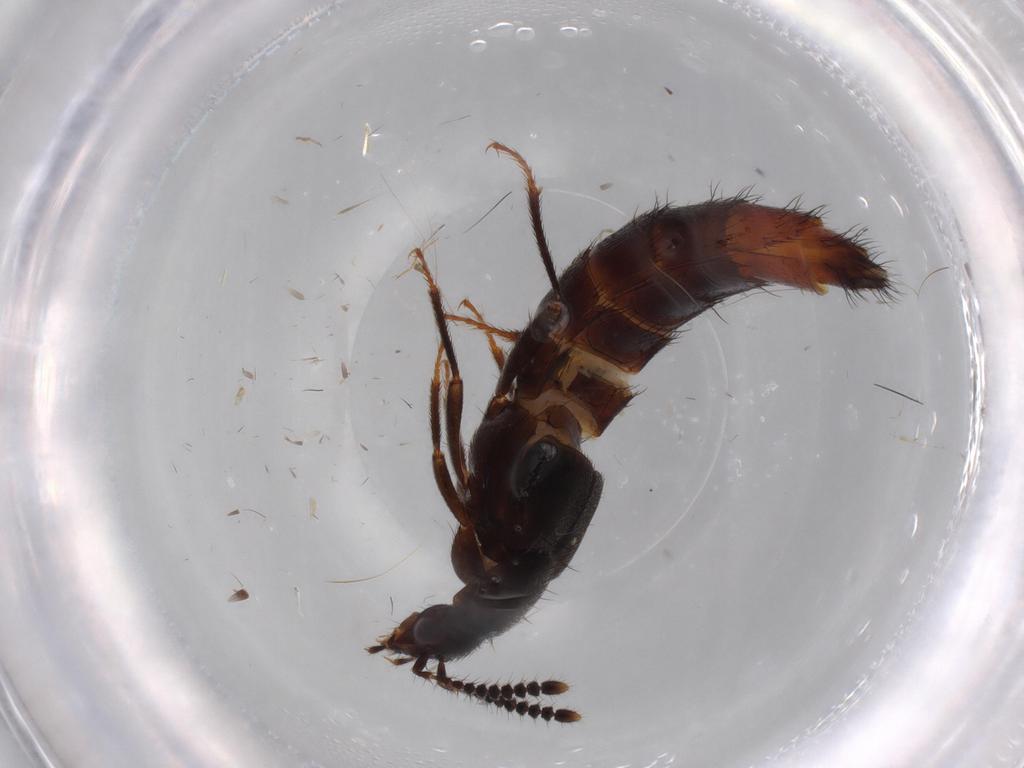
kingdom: Animalia
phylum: Arthropoda
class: Insecta
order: Coleoptera
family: Staphylinidae
